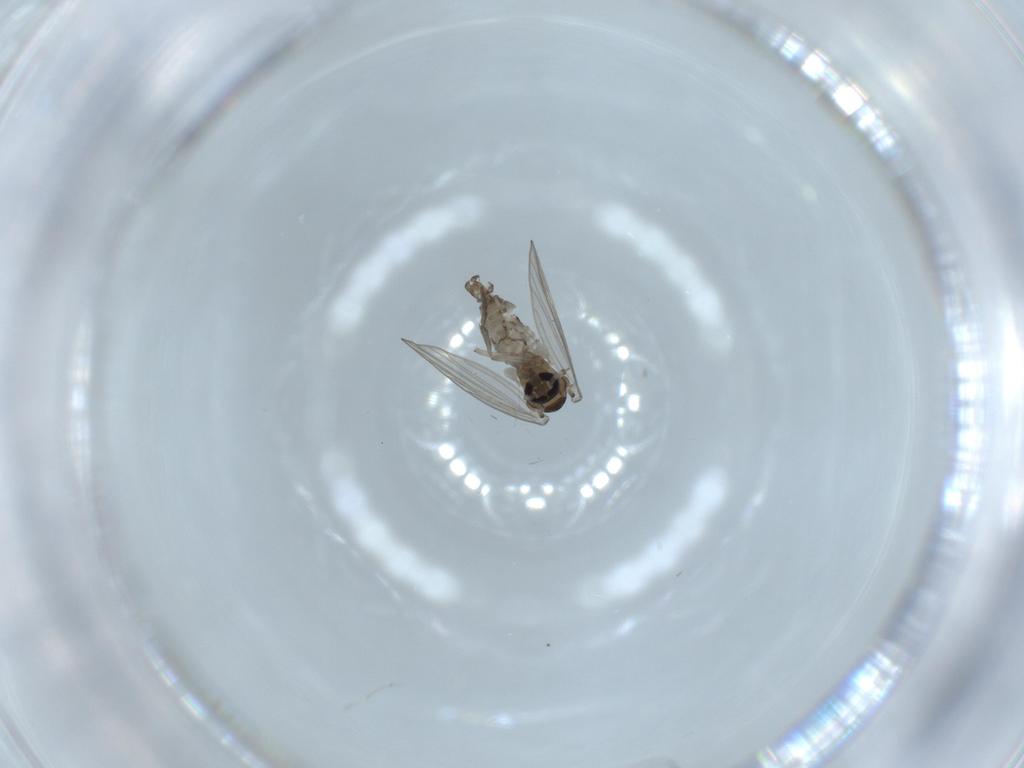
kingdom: Animalia
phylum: Arthropoda
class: Insecta
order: Diptera
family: Psychodidae
